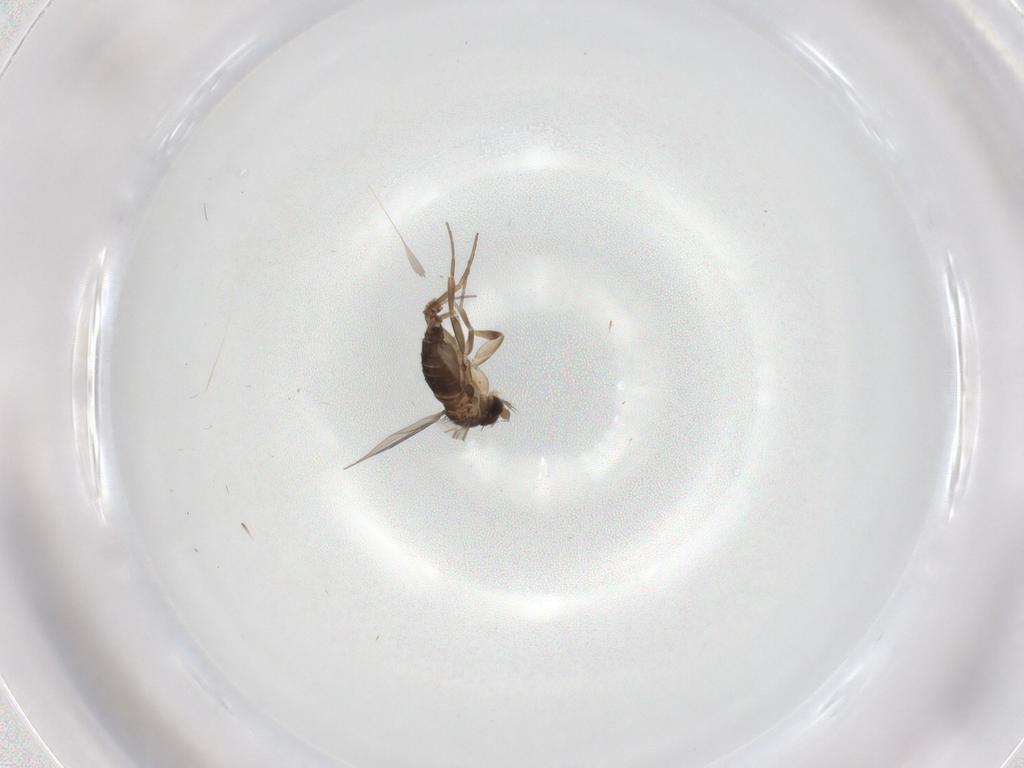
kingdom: Animalia
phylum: Arthropoda
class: Insecta
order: Diptera
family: Phoridae
